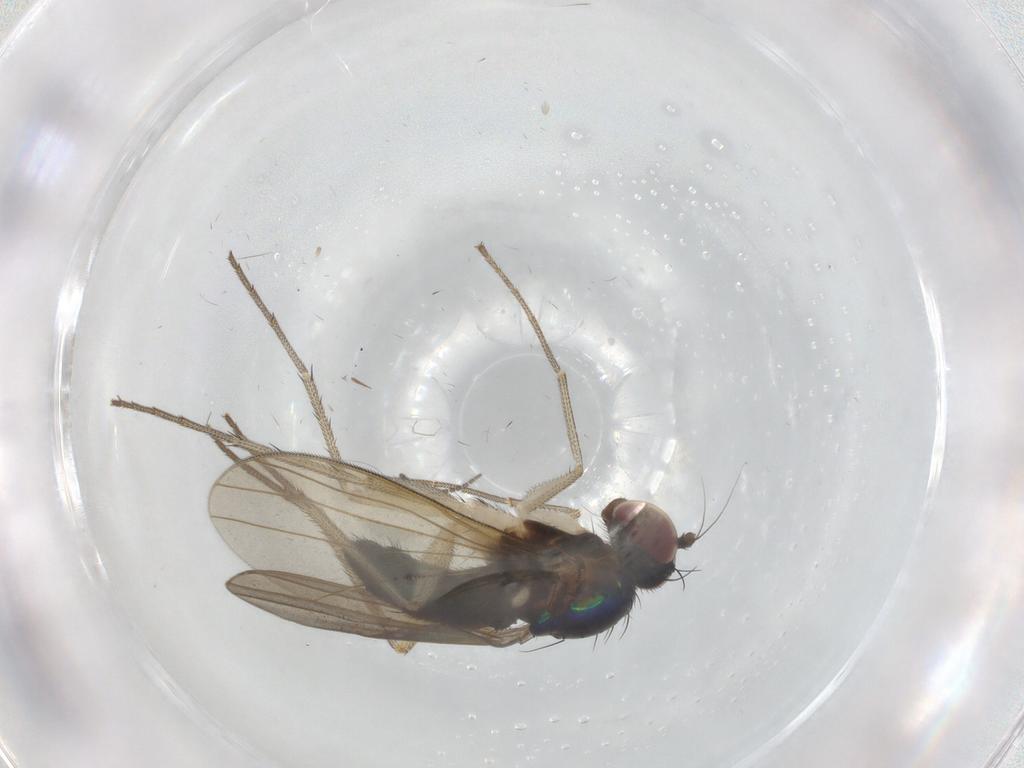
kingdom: Animalia
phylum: Arthropoda
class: Insecta
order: Diptera
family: Dolichopodidae
